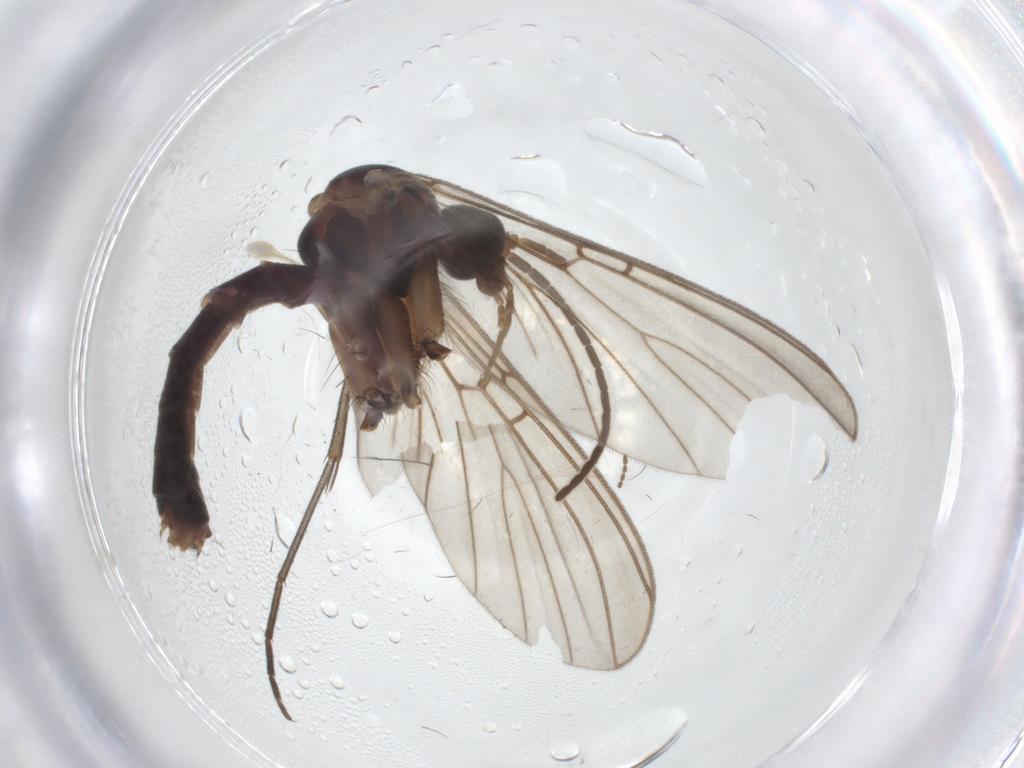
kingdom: Animalia
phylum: Arthropoda
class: Insecta
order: Diptera
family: Mycetophilidae
